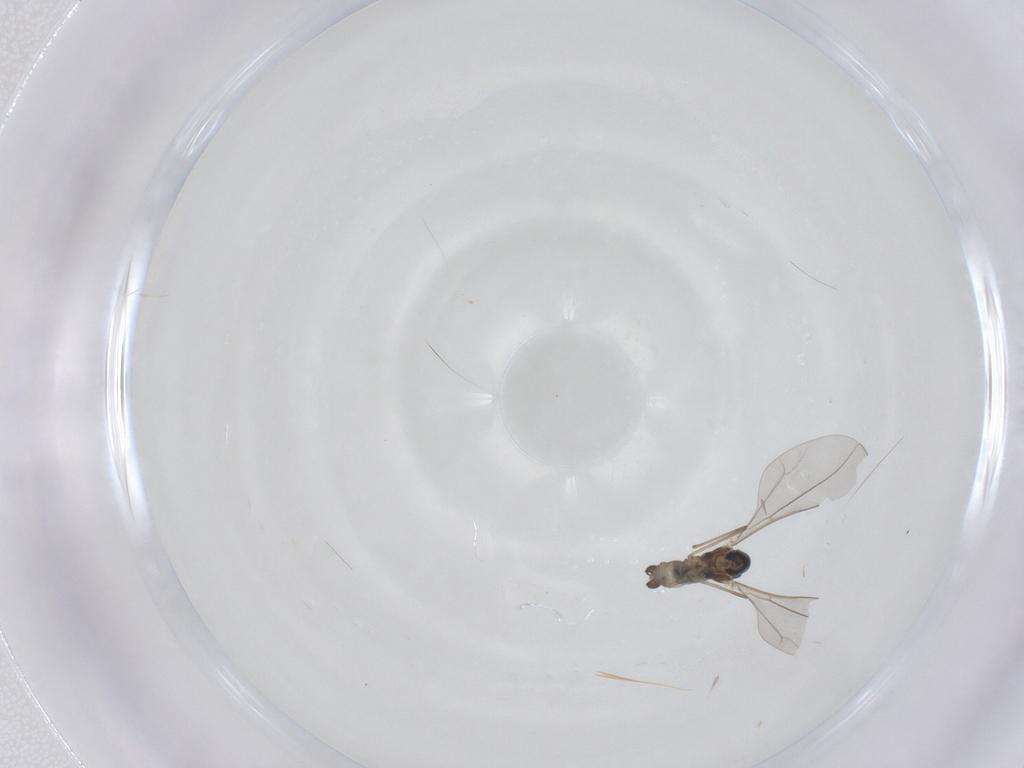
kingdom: Animalia
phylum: Arthropoda
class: Insecta
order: Diptera
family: Cecidomyiidae
